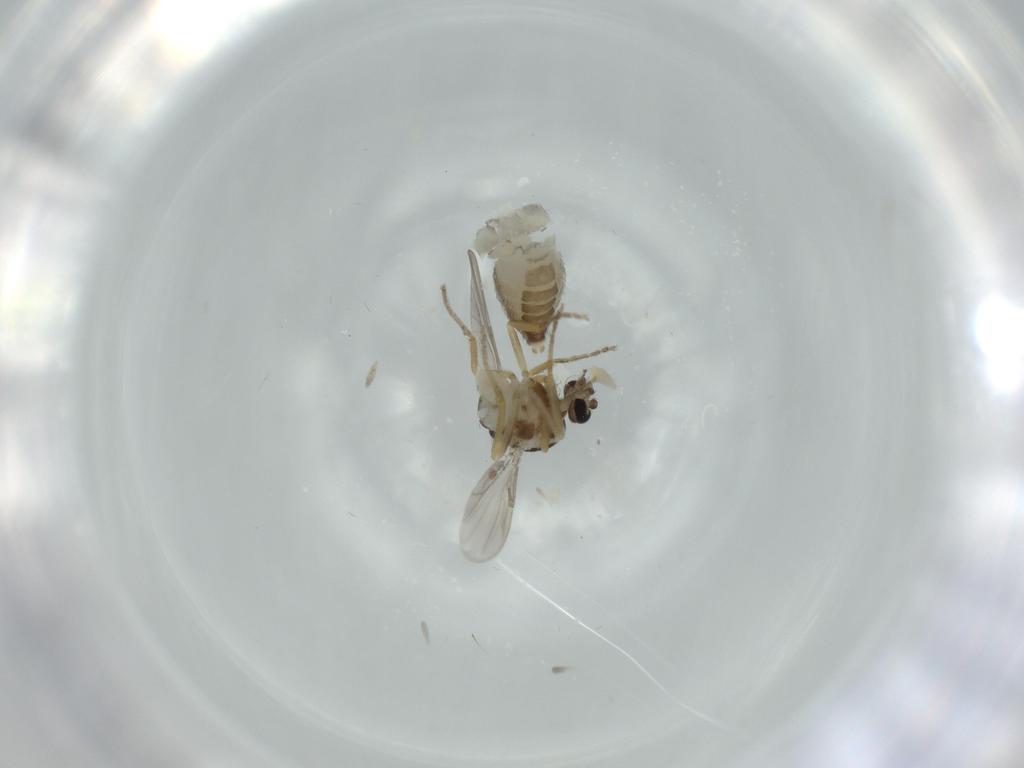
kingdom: Animalia
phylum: Arthropoda
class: Insecta
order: Diptera
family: Ceratopogonidae
